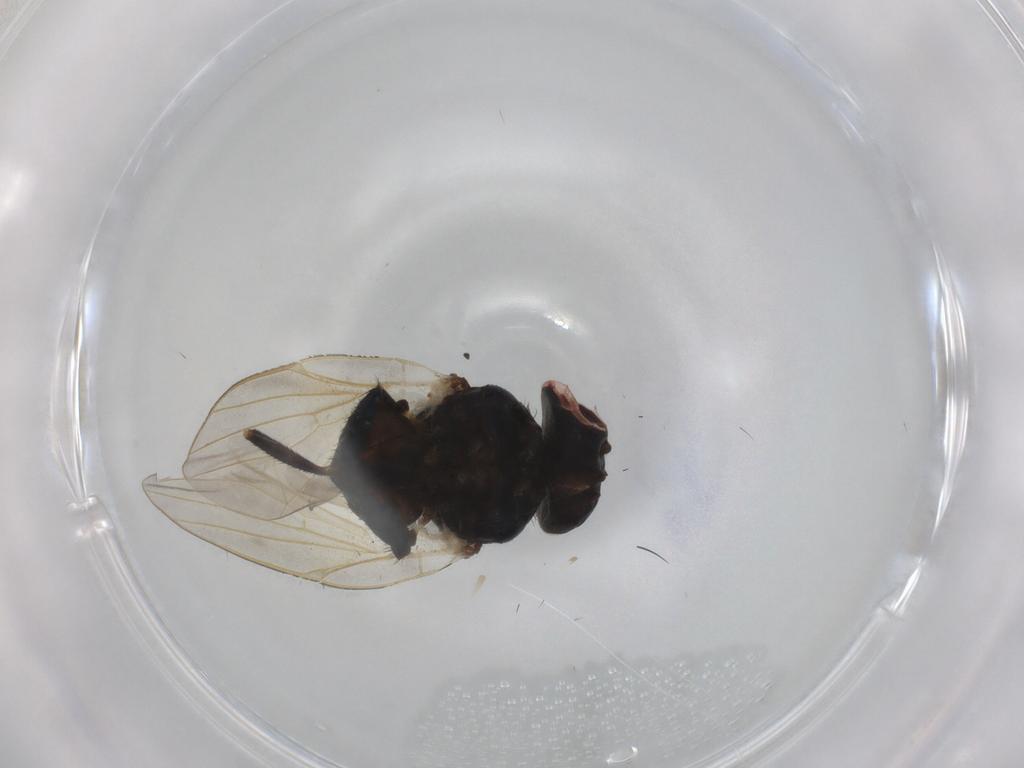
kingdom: Animalia
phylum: Arthropoda
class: Insecta
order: Diptera
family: Lonchaeidae
